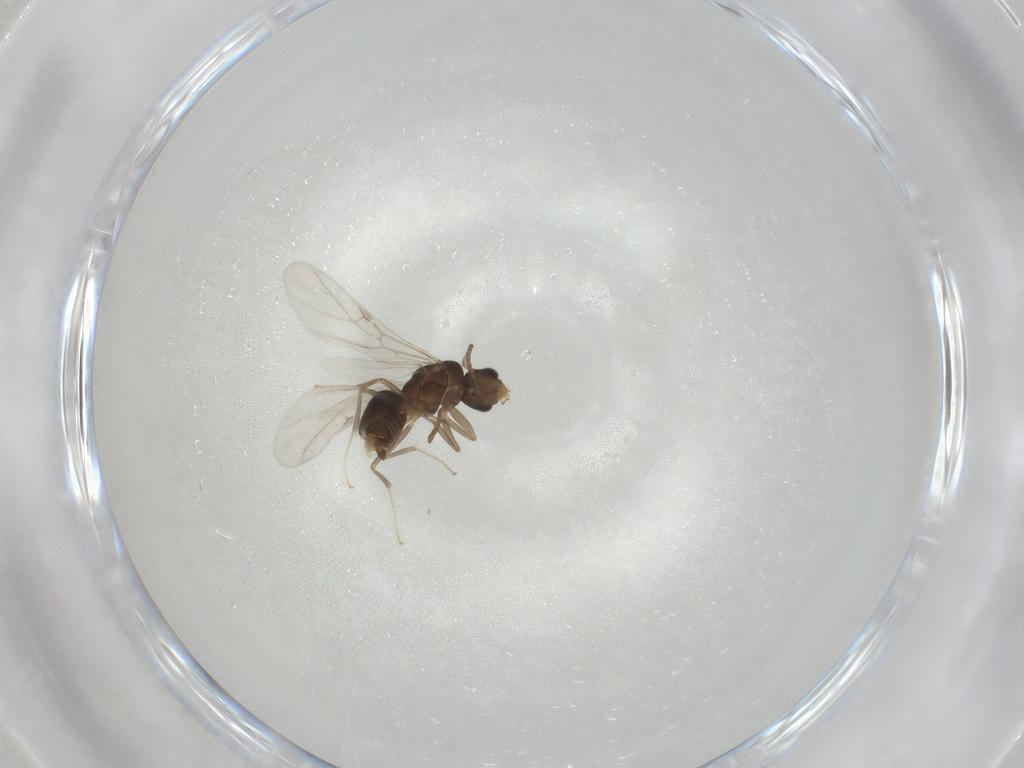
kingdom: Animalia
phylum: Arthropoda
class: Insecta
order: Hymenoptera
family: Formicidae
